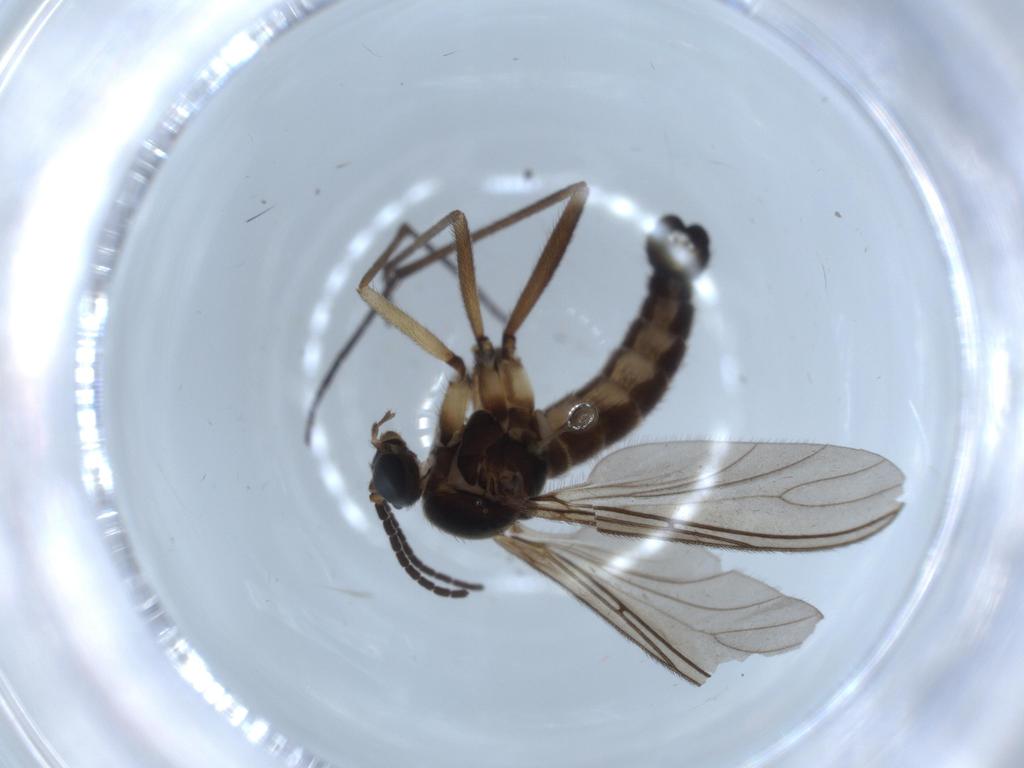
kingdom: Animalia
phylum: Arthropoda
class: Insecta
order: Diptera
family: Sciaridae
